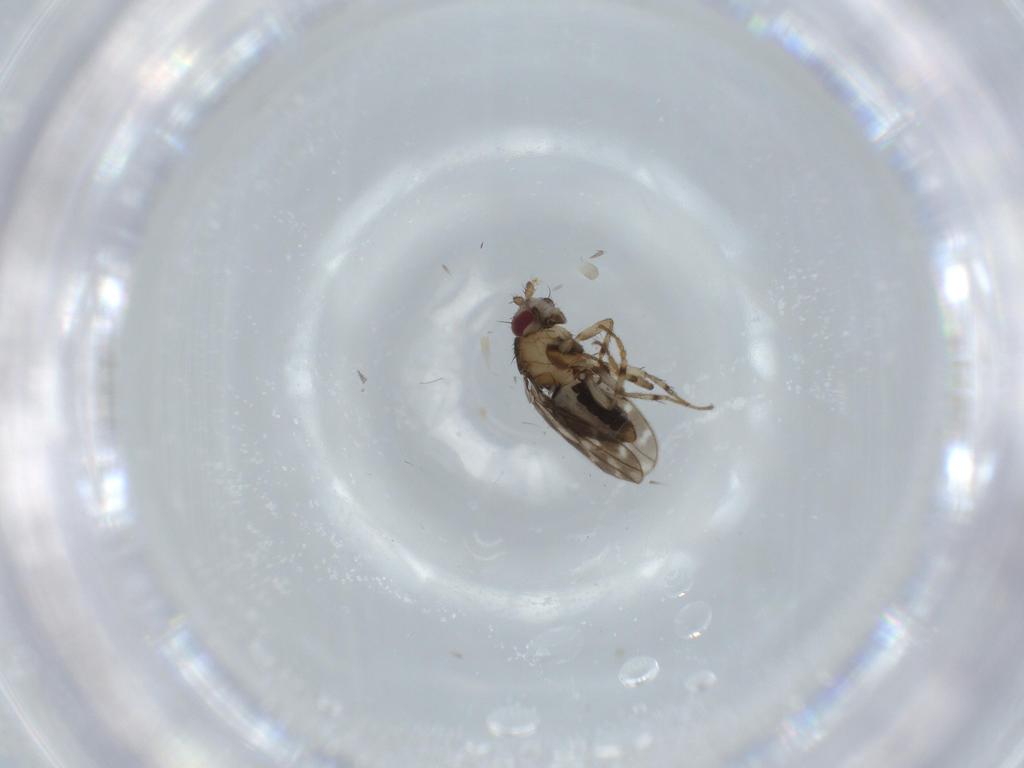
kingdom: Animalia
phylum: Arthropoda
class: Insecta
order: Diptera
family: Sphaeroceridae
